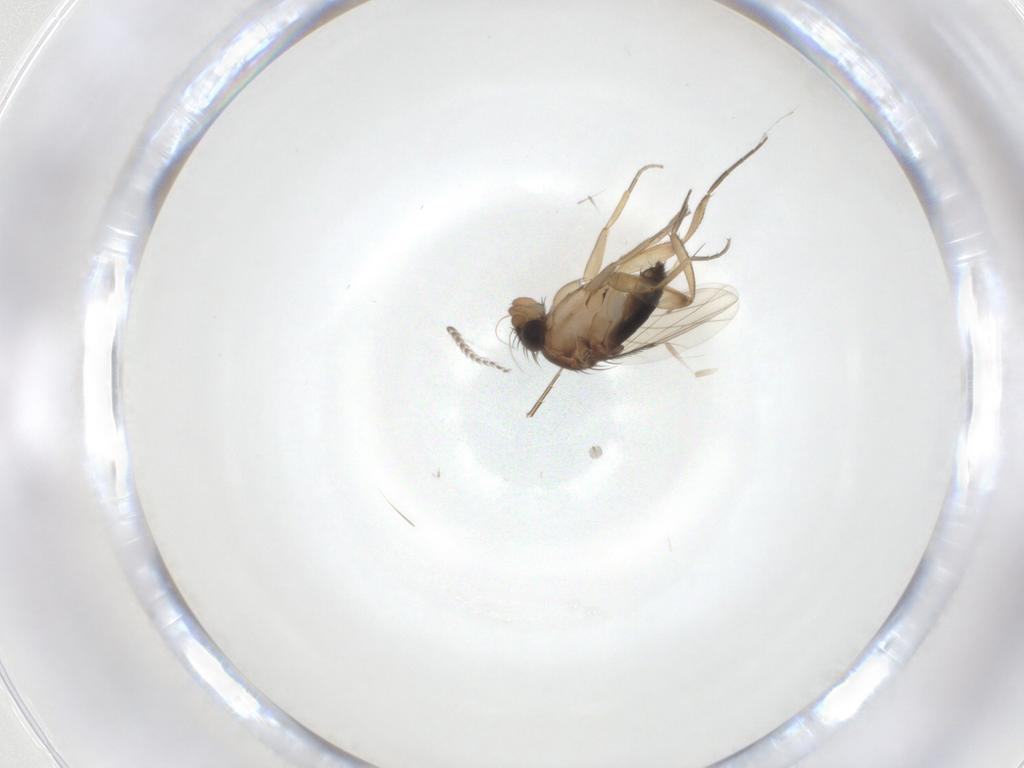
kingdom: Animalia
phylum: Arthropoda
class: Insecta
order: Diptera
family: Phoridae
